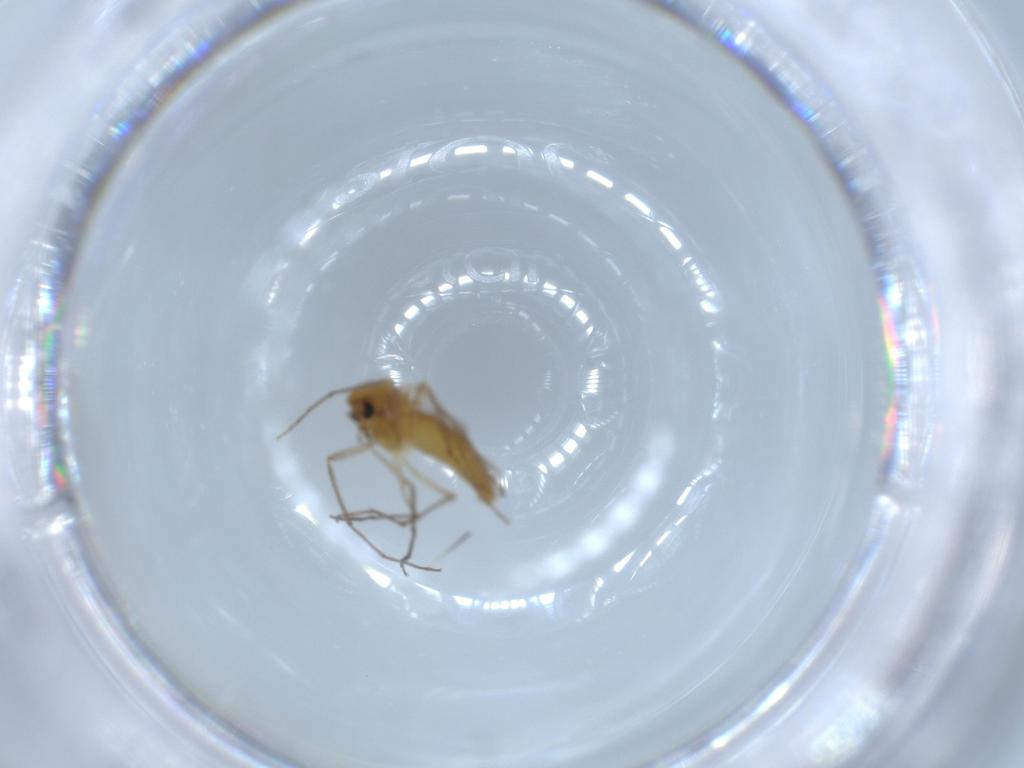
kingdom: Animalia
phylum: Arthropoda
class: Insecta
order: Diptera
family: Chironomidae
